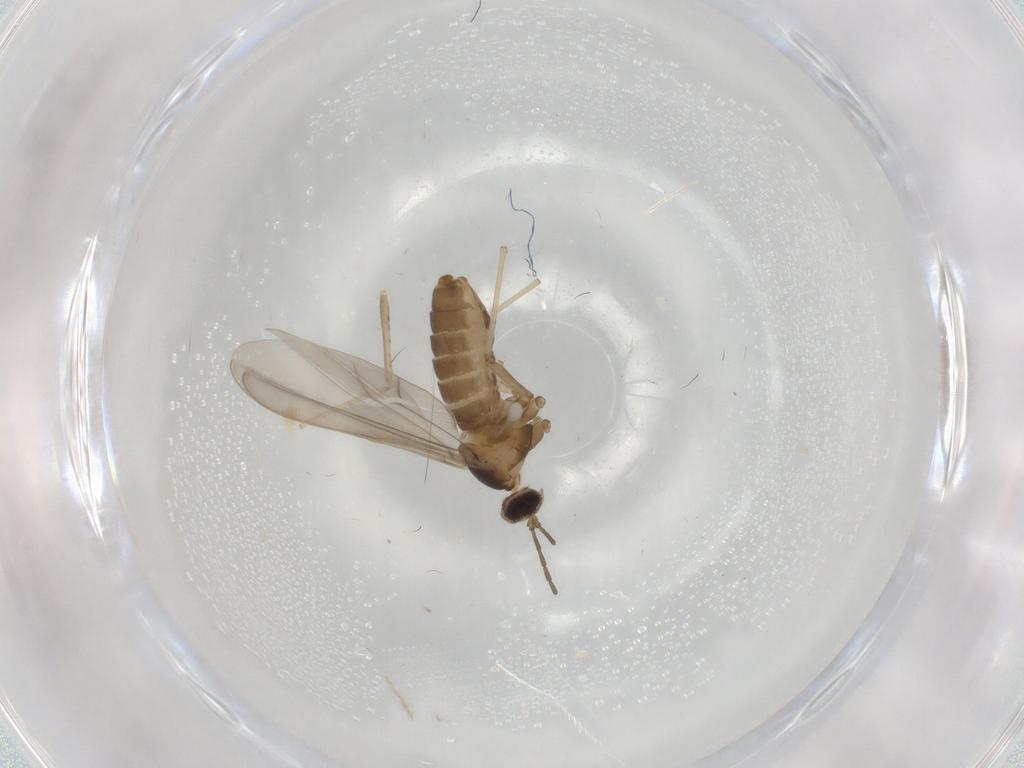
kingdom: Animalia
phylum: Arthropoda
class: Insecta
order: Diptera
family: Cecidomyiidae
